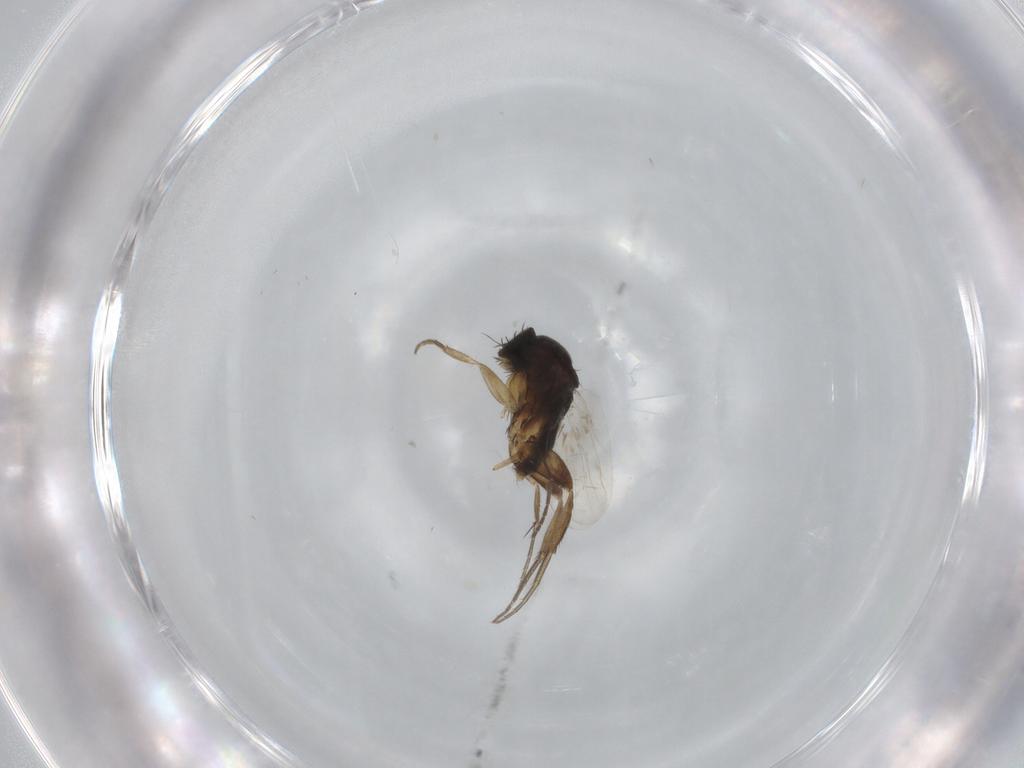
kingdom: Animalia
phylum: Arthropoda
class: Insecta
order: Diptera
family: Phoridae
